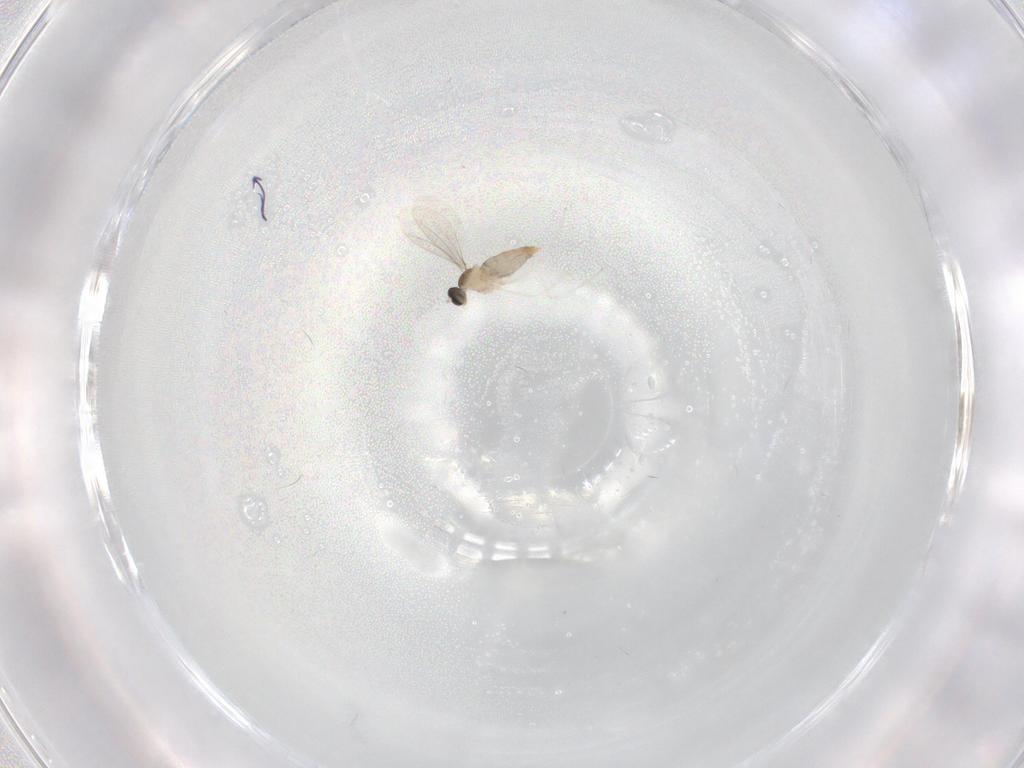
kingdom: Animalia
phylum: Arthropoda
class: Insecta
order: Diptera
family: Cecidomyiidae
